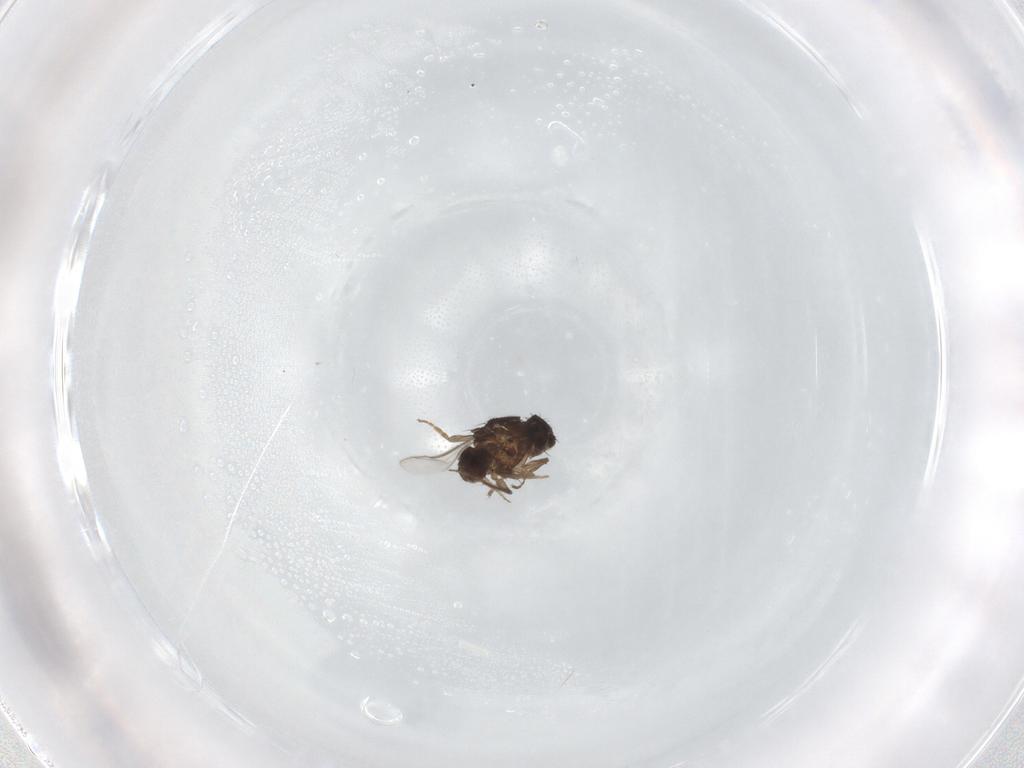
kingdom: Animalia
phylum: Arthropoda
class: Insecta
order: Diptera
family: Sphaeroceridae
